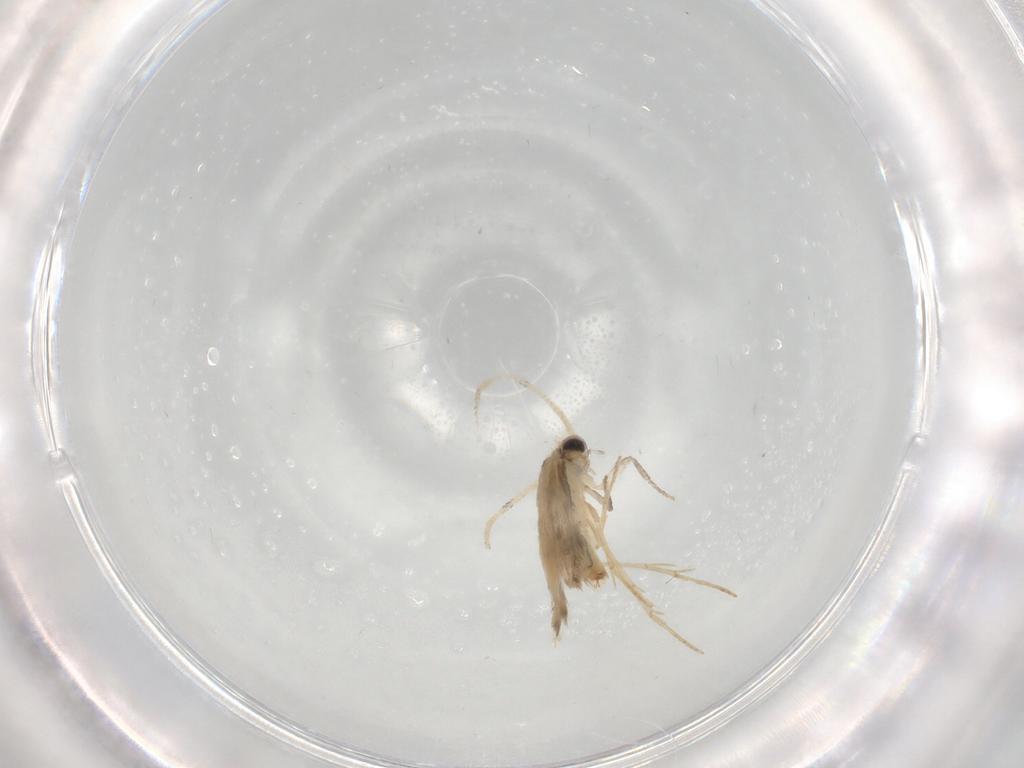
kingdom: Animalia
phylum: Arthropoda
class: Insecta
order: Trichoptera
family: Hydroptilidae
